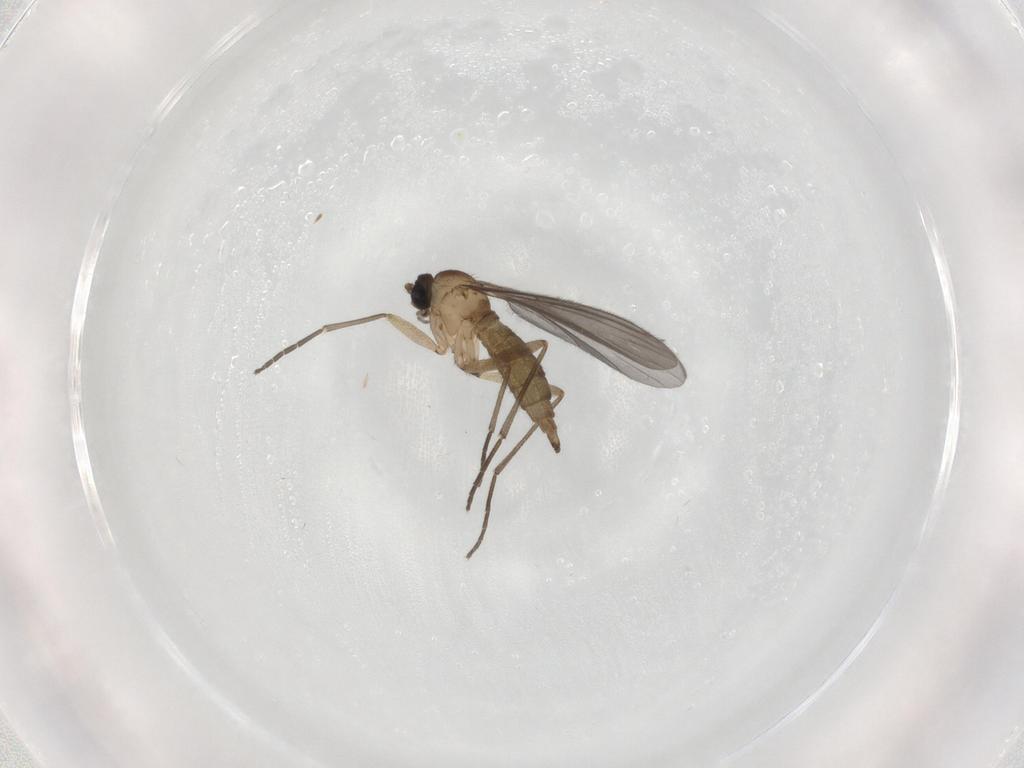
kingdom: Animalia
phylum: Arthropoda
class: Insecta
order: Diptera
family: Sciaridae
